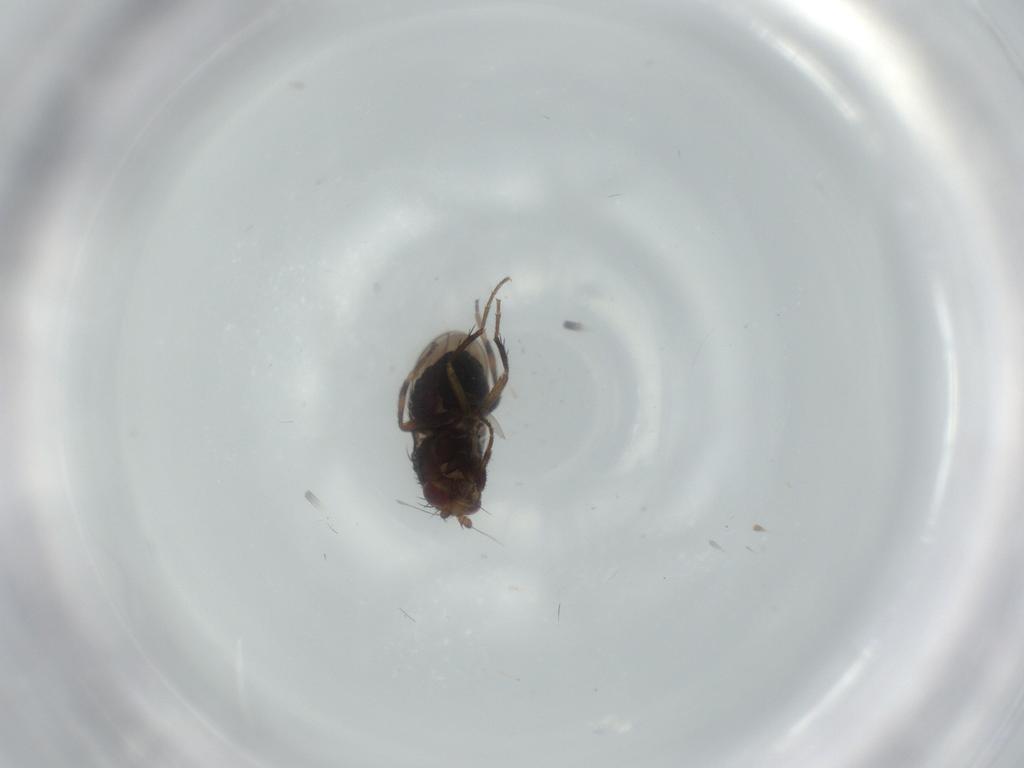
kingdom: Animalia
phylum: Arthropoda
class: Insecta
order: Diptera
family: Sphaeroceridae
